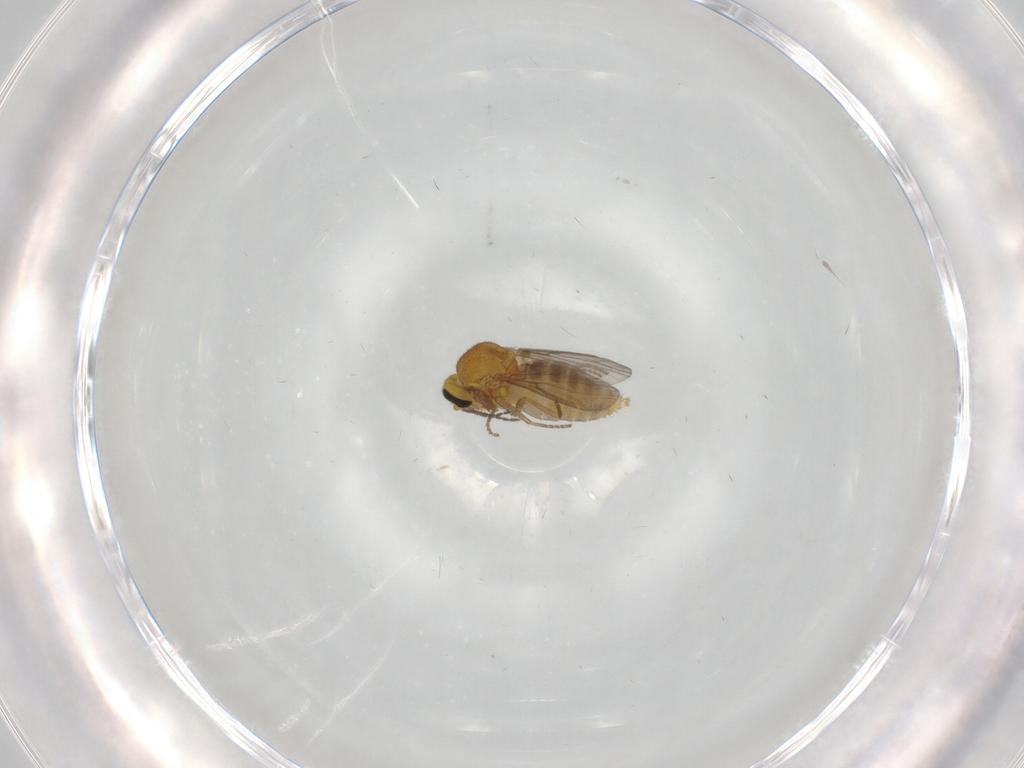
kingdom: Animalia
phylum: Arthropoda
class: Insecta
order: Diptera
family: Ceratopogonidae
